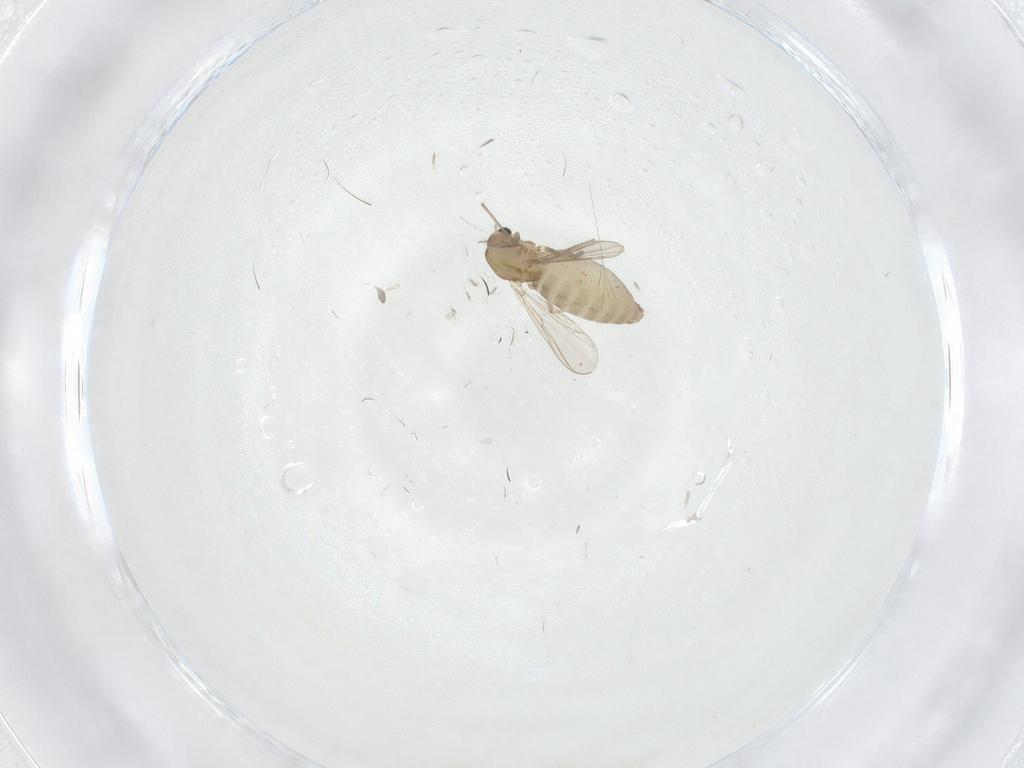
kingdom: Animalia
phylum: Arthropoda
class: Insecta
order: Diptera
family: Chironomidae
